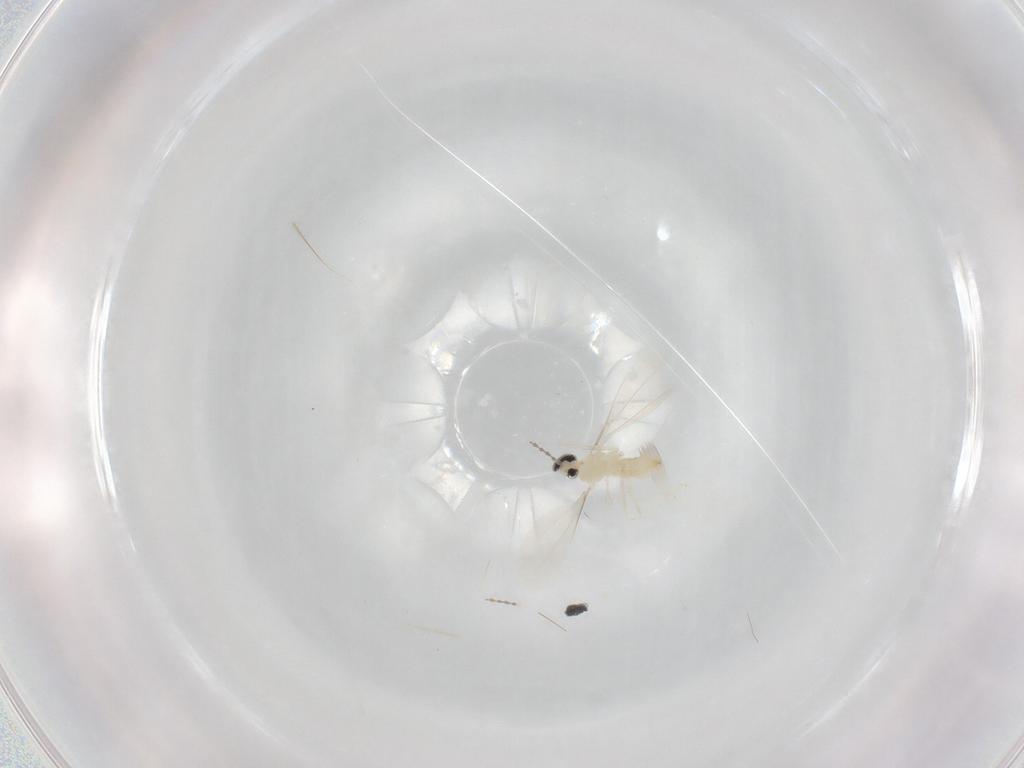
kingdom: Animalia
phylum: Arthropoda
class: Insecta
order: Diptera
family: Cecidomyiidae
